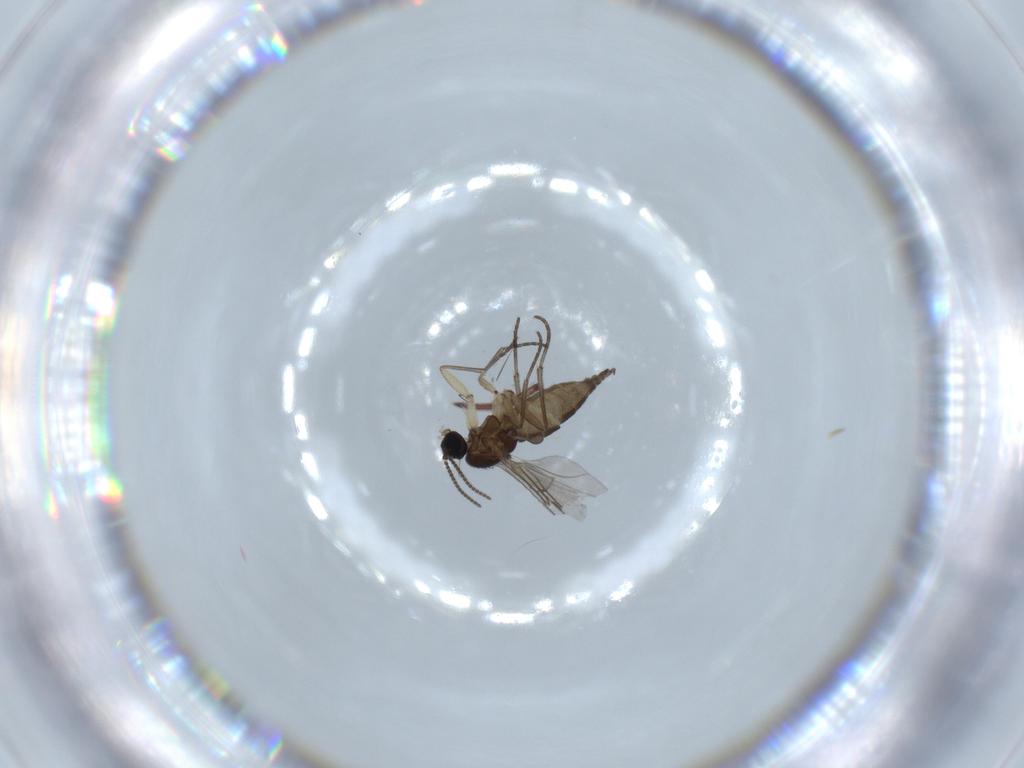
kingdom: Animalia
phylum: Arthropoda
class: Insecta
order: Diptera
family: Sciaridae
